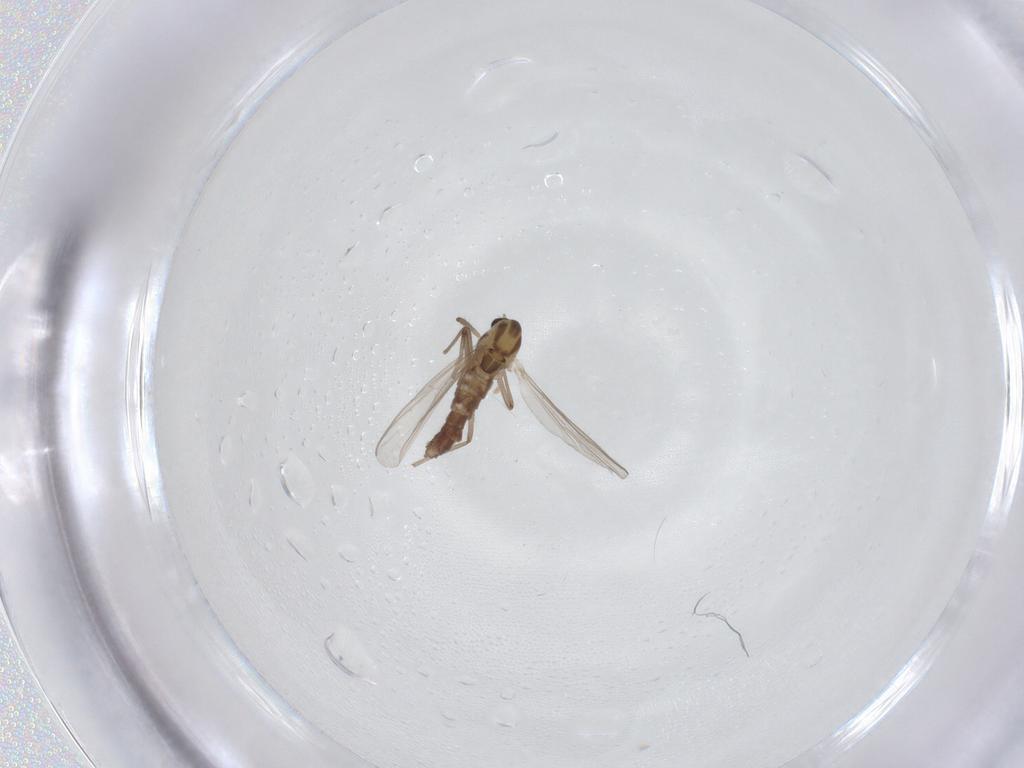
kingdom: Animalia
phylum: Arthropoda
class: Insecta
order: Diptera
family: Chironomidae
